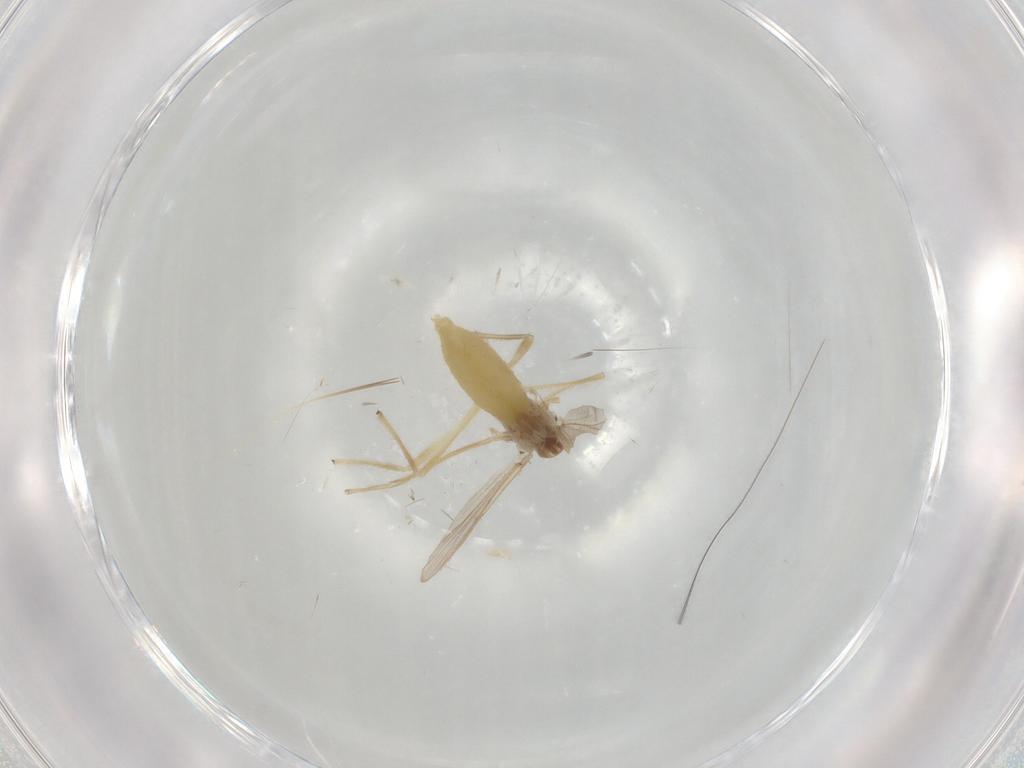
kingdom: Animalia
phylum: Arthropoda
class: Insecta
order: Diptera
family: Chironomidae
